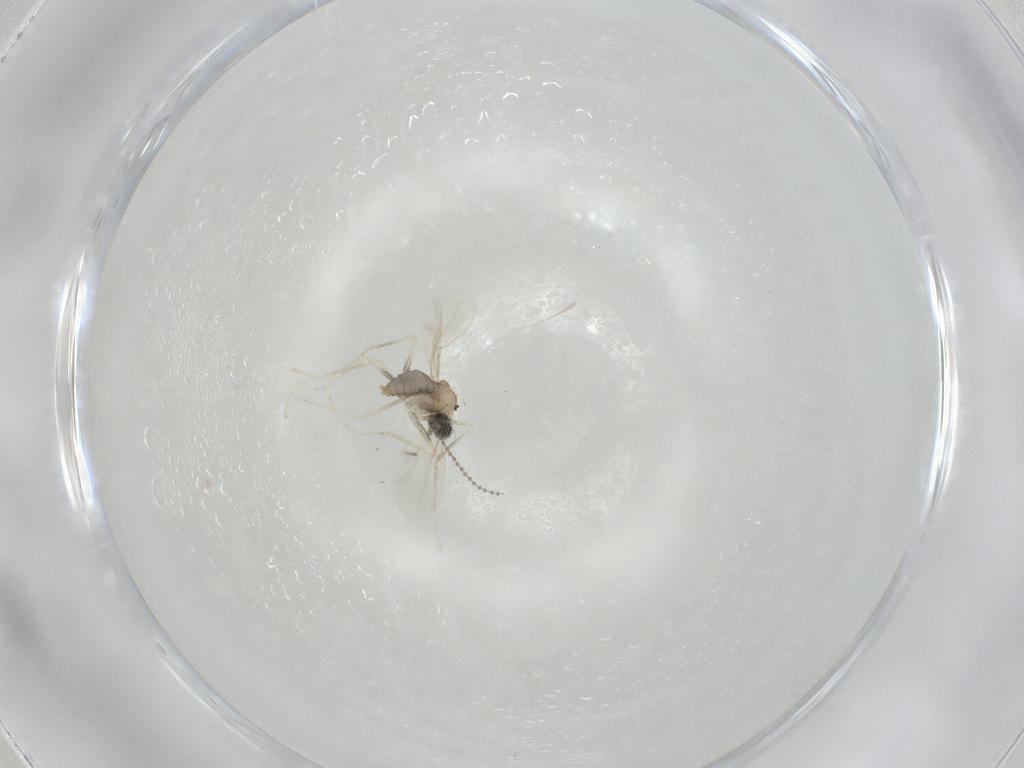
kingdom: Animalia
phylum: Arthropoda
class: Insecta
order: Diptera
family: Cecidomyiidae
